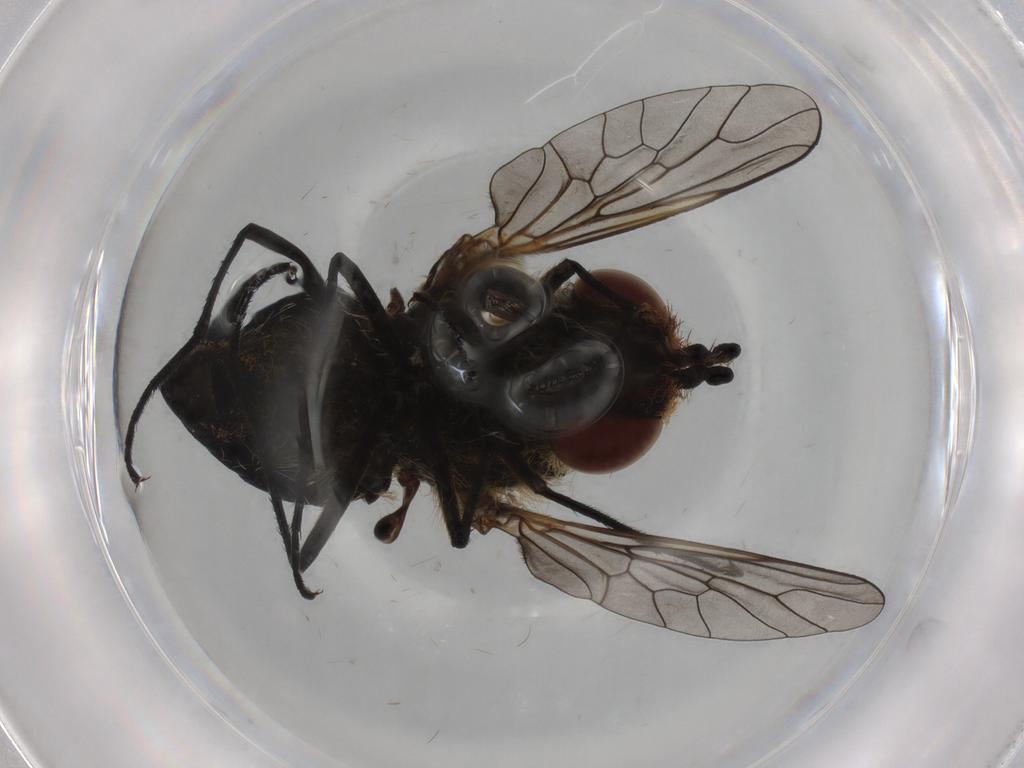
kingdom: Animalia
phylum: Arthropoda
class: Insecta
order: Diptera
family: Bombyliidae
